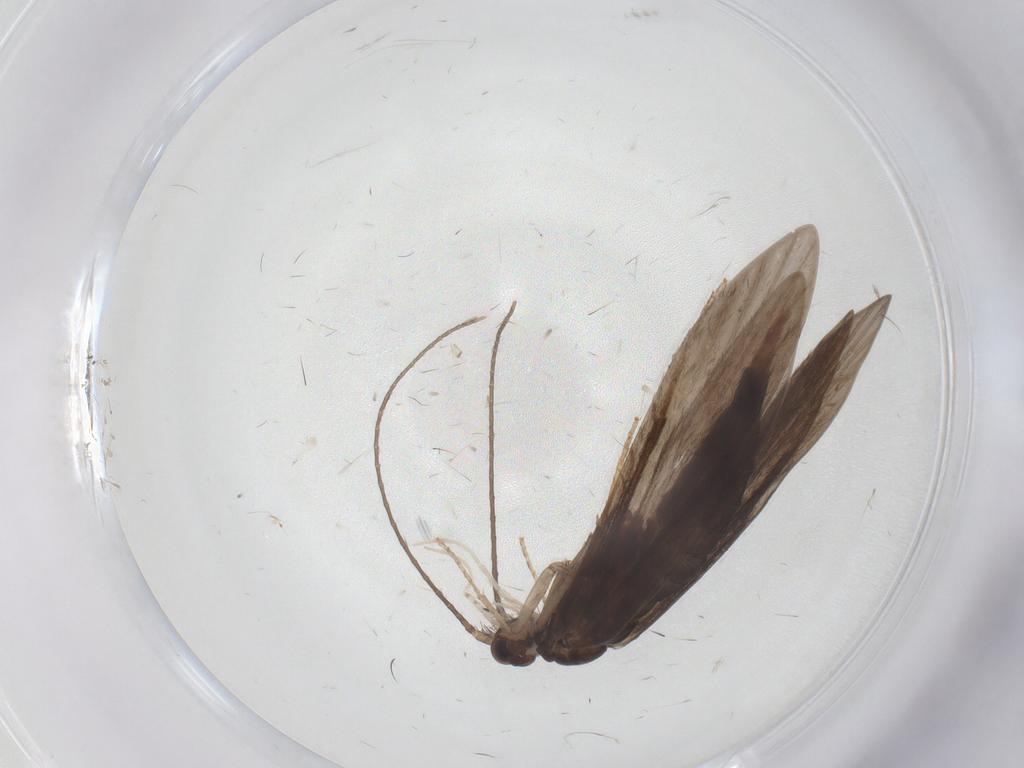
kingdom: Animalia
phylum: Arthropoda
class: Insecta
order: Trichoptera
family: Xiphocentronidae
